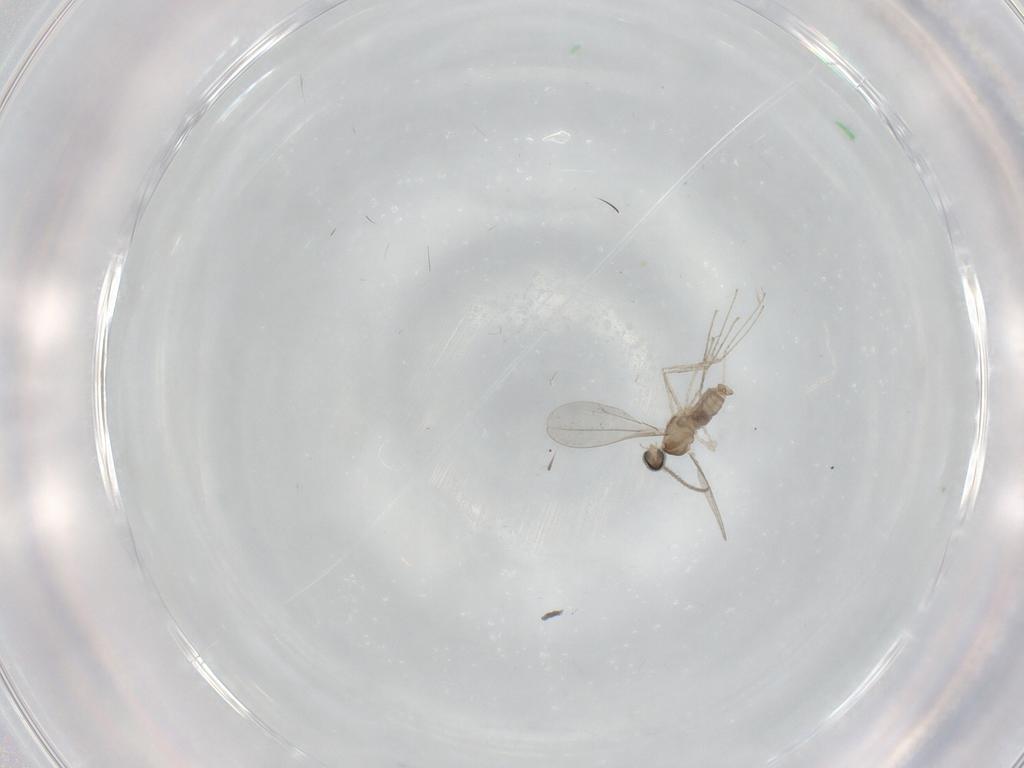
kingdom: Animalia
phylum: Arthropoda
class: Insecta
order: Diptera
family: Cecidomyiidae
